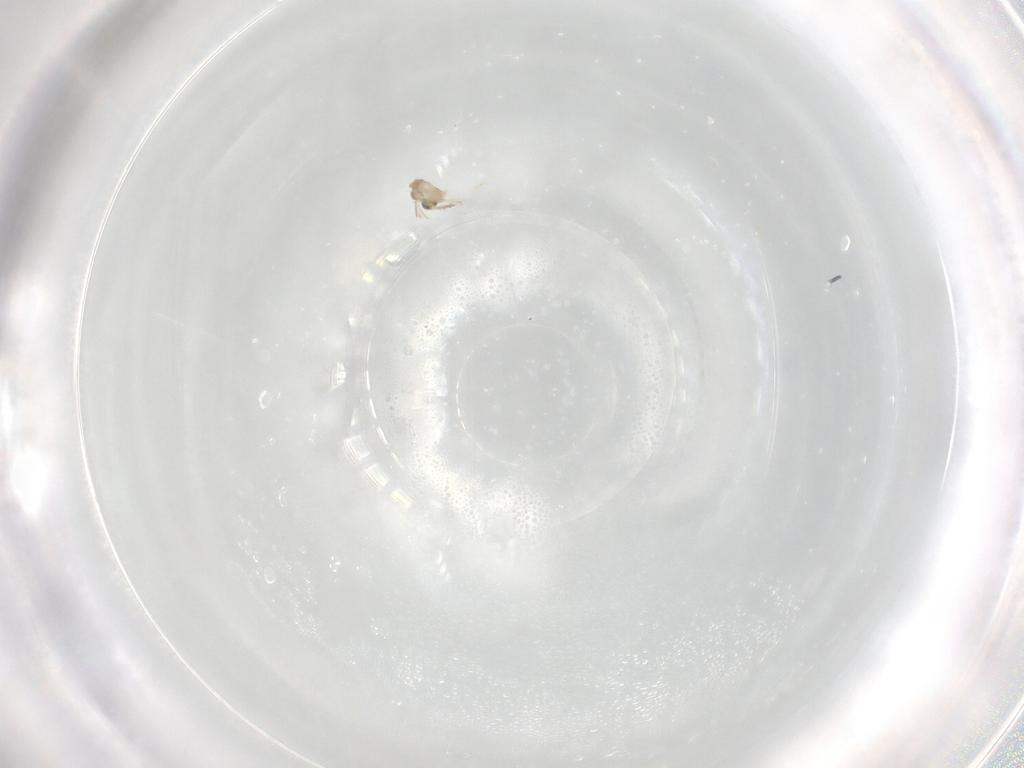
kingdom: Animalia
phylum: Arthropoda
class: Insecta
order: Diptera
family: Cecidomyiidae
